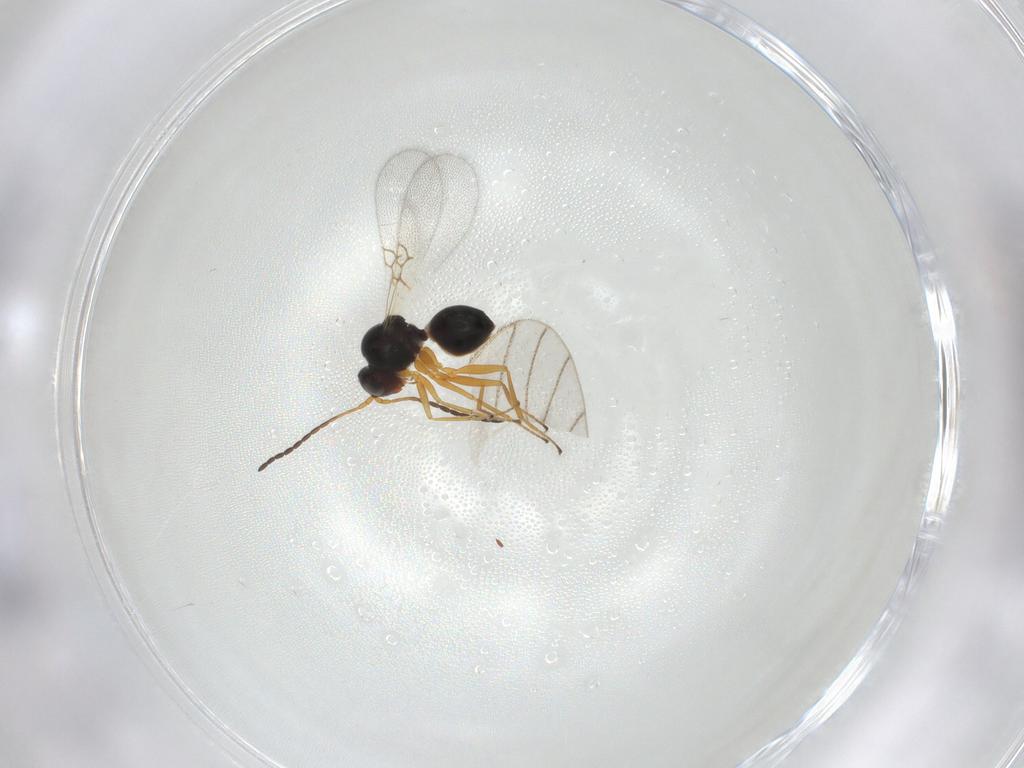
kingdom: Animalia
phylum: Arthropoda
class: Insecta
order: Hymenoptera
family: Figitidae
